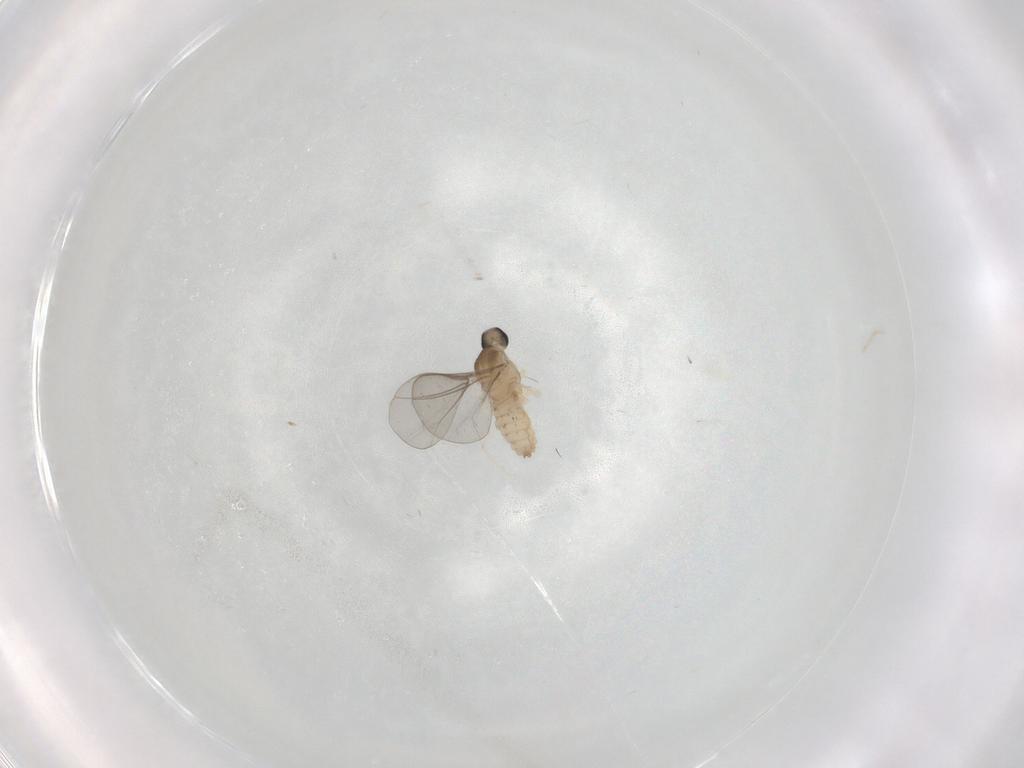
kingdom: Animalia
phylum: Arthropoda
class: Insecta
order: Diptera
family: Cecidomyiidae
